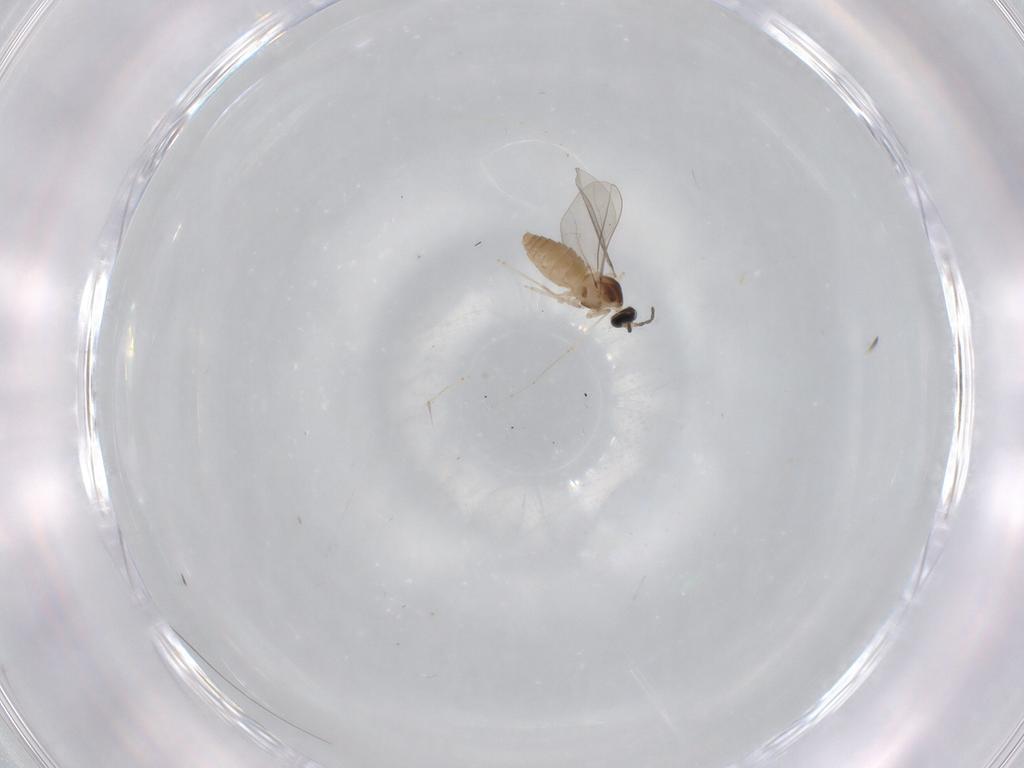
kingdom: Animalia
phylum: Arthropoda
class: Insecta
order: Diptera
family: Cecidomyiidae
